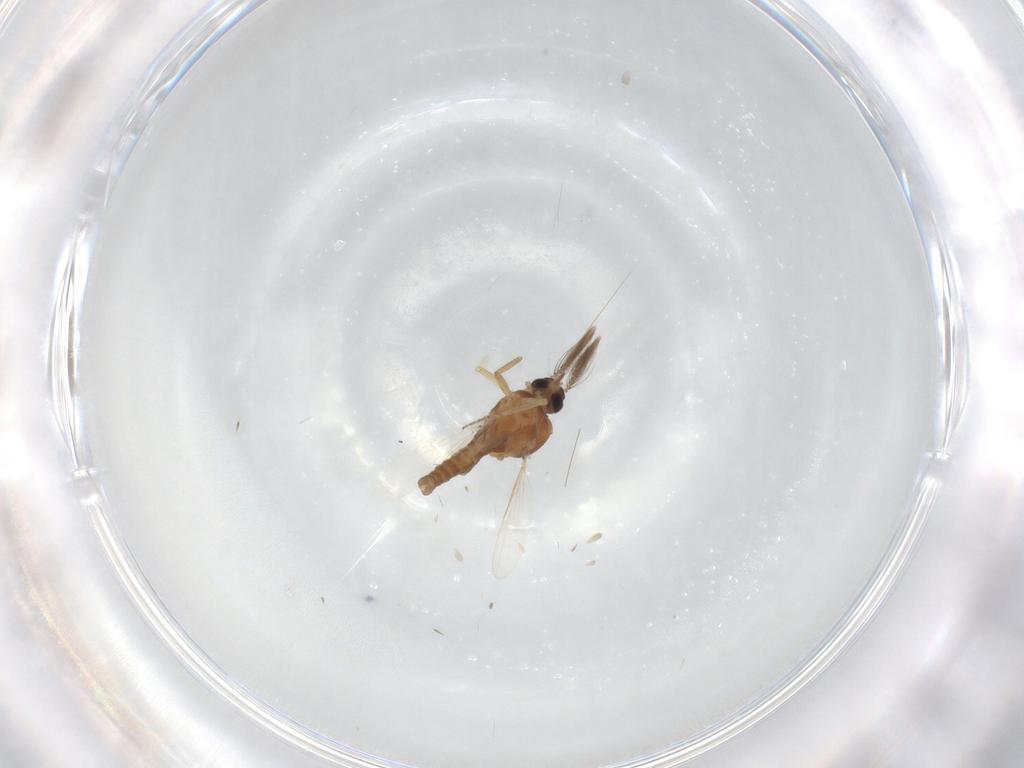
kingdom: Animalia
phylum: Arthropoda
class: Insecta
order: Diptera
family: Ceratopogonidae
